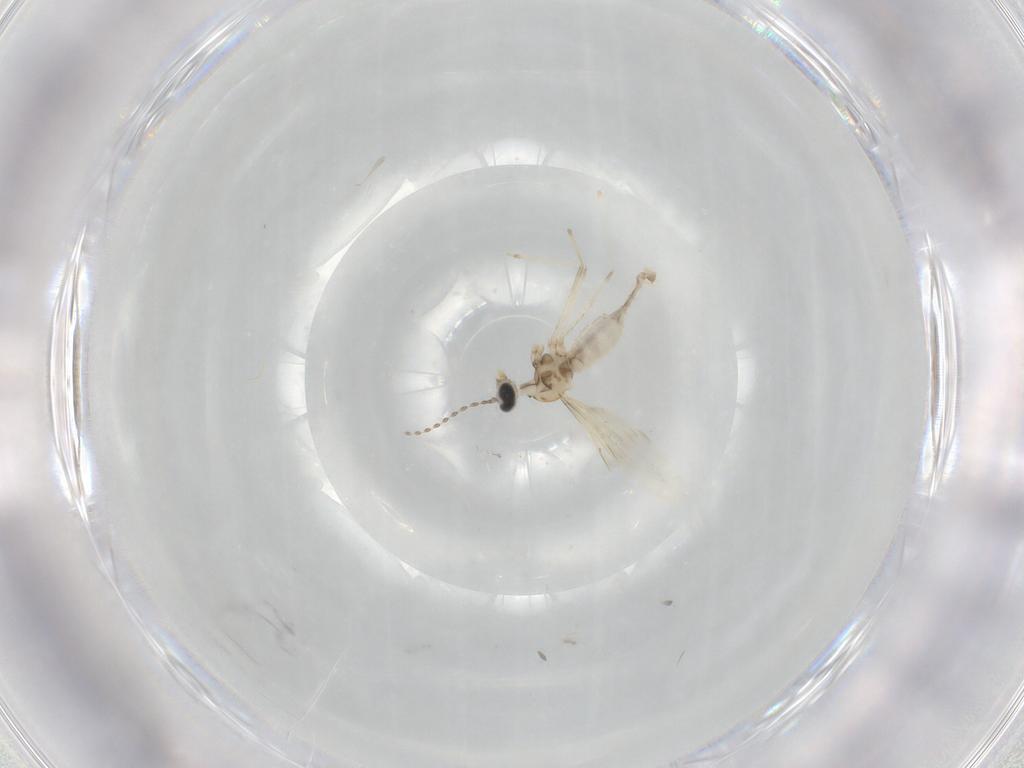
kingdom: Animalia
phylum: Arthropoda
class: Insecta
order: Diptera
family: Cecidomyiidae
